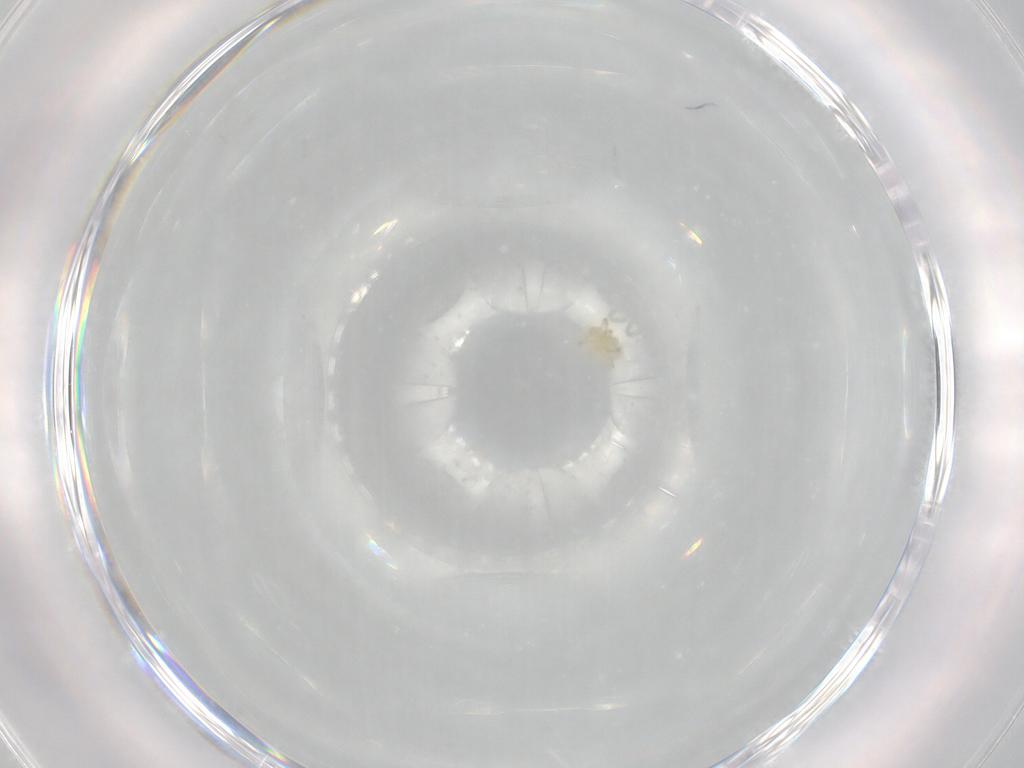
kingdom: Animalia
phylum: Arthropoda
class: Arachnida
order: Trombidiformes
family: Trombidiidae
